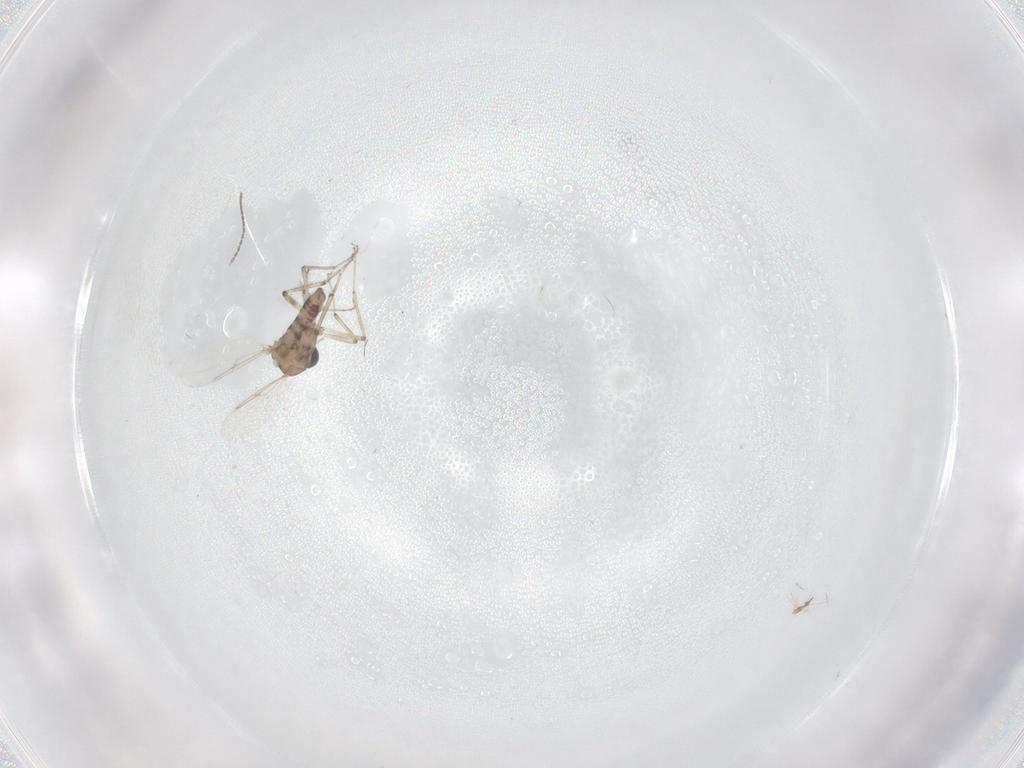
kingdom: Animalia
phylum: Arthropoda
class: Insecta
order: Diptera
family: Ceratopogonidae
